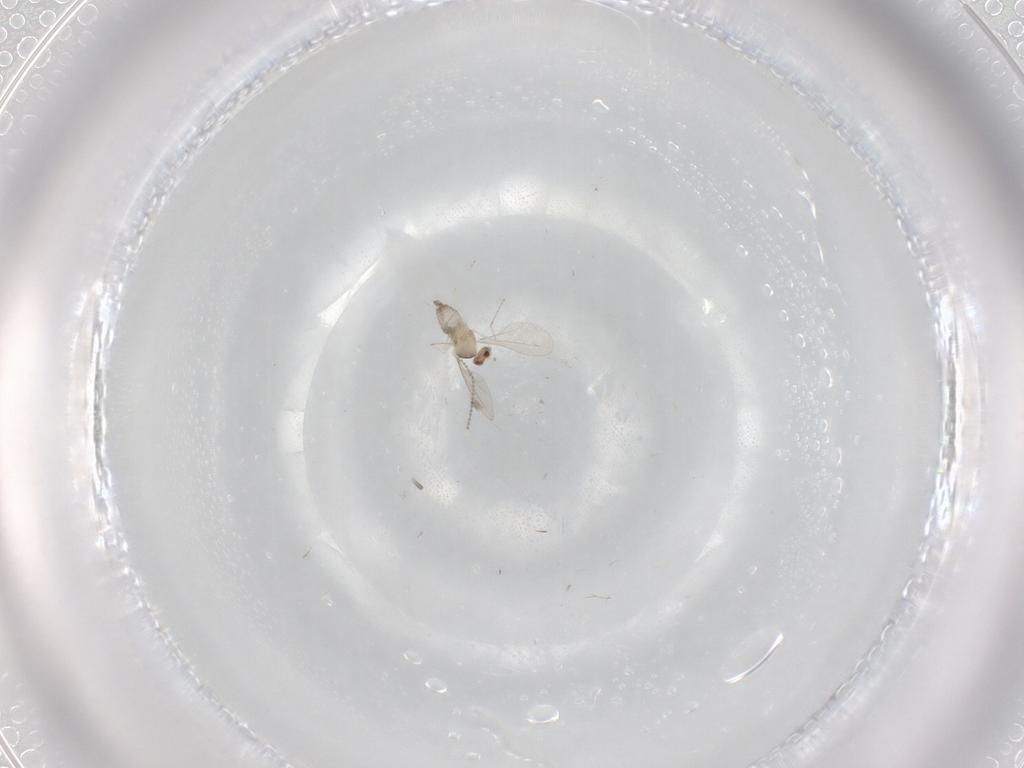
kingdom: Animalia
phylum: Arthropoda
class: Insecta
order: Diptera
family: Cecidomyiidae
